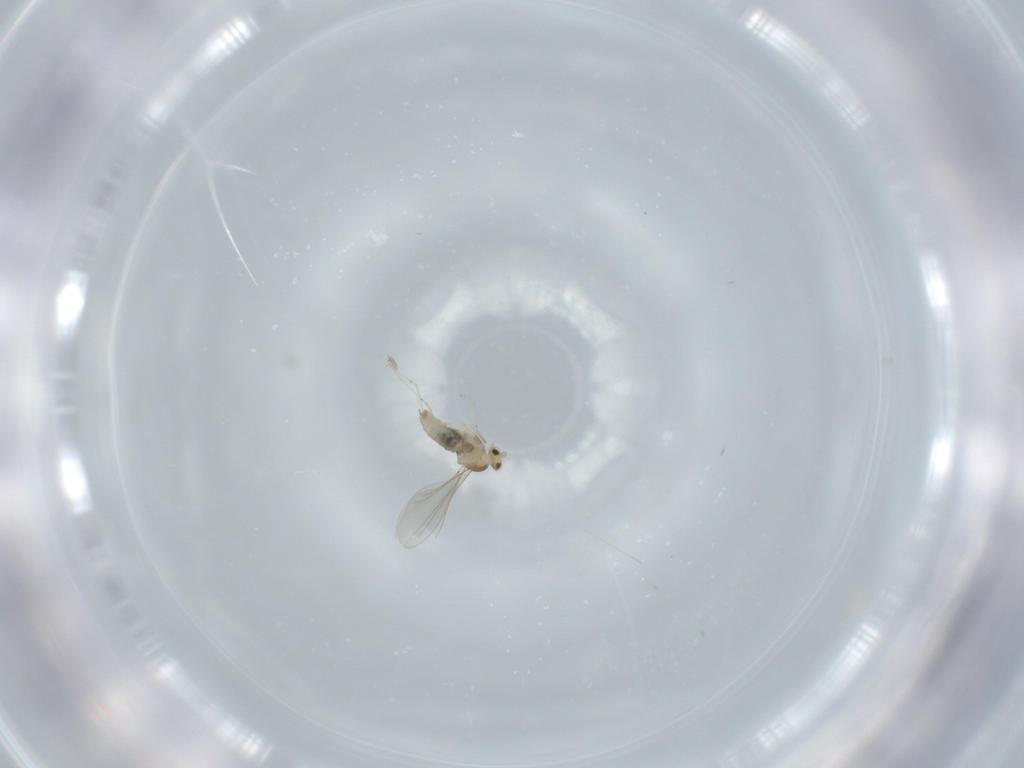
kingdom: Animalia
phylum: Arthropoda
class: Insecta
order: Diptera
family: Cecidomyiidae
